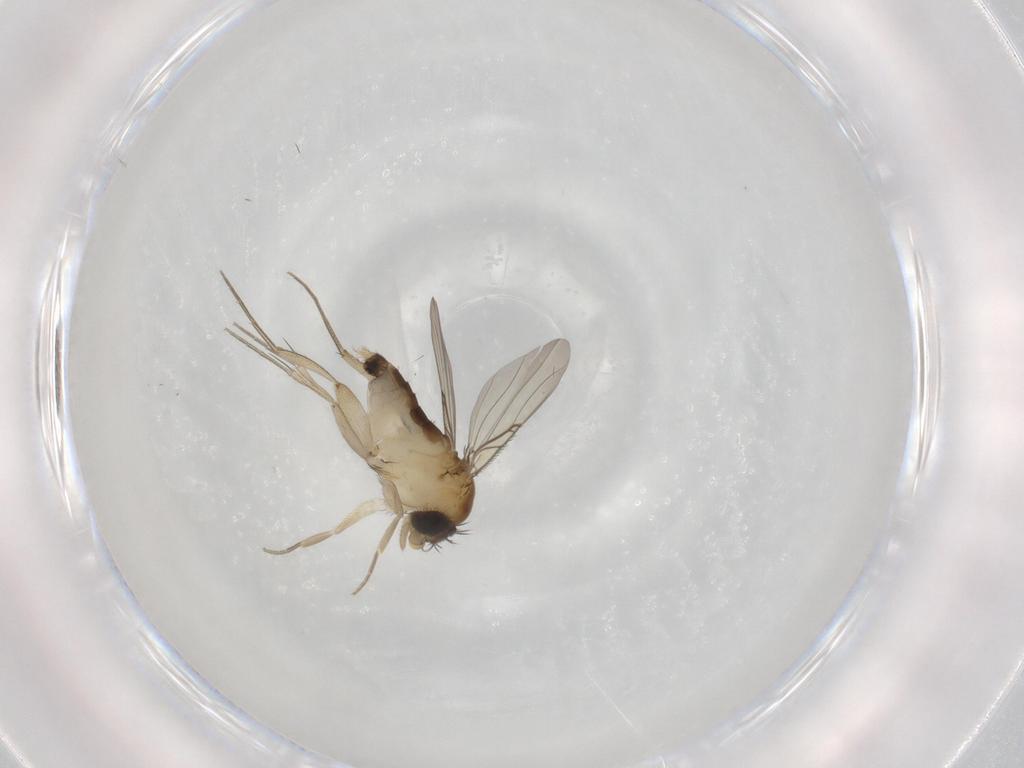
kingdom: Animalia
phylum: Arthropoda
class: Insecta
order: Diptera
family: Phoridae
